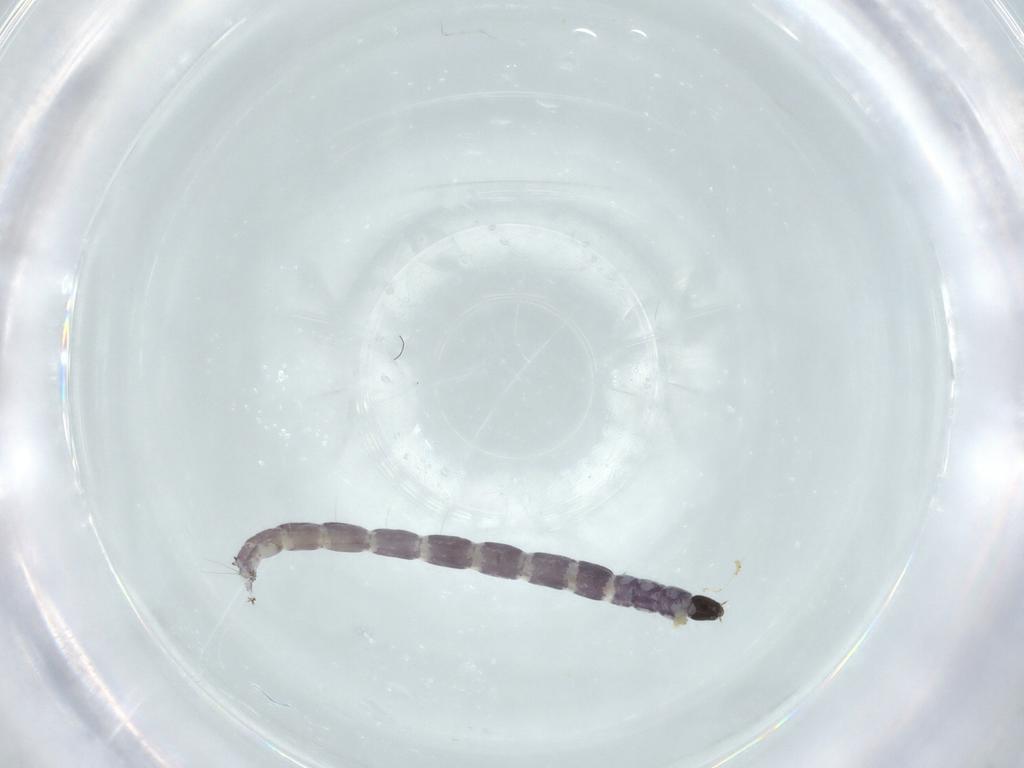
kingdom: Animalia
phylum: Arthropoda
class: Insecta
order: Diptera
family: Chironomidae
